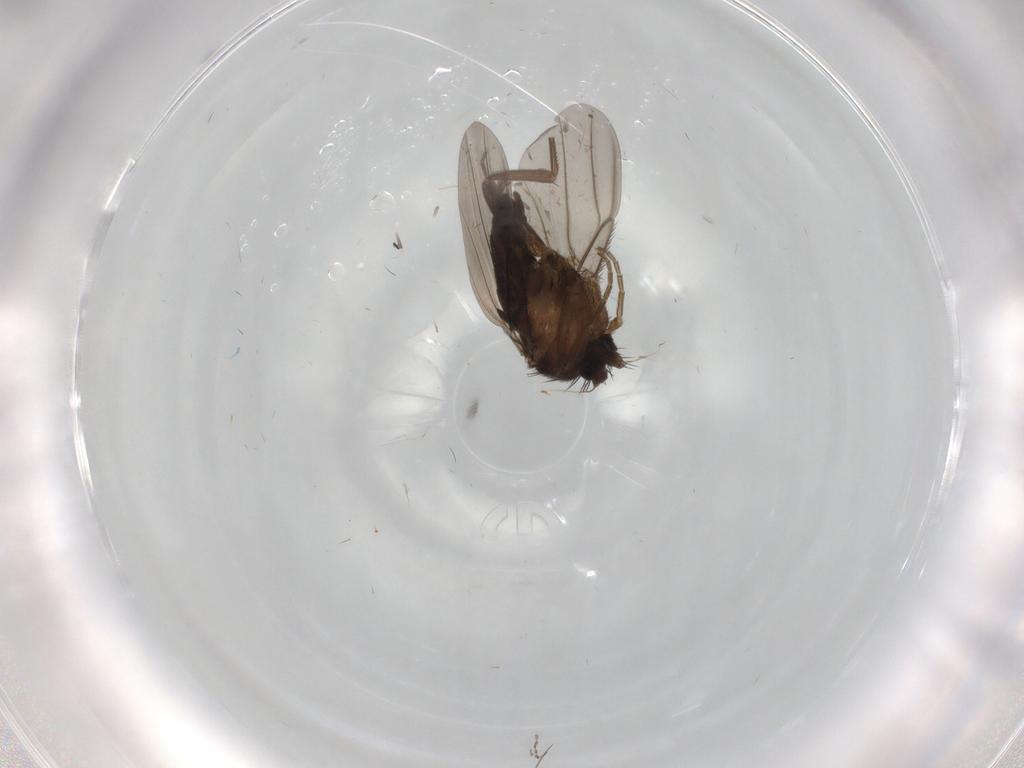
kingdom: Animalia
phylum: Arthropoda
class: Insecta
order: Diptera
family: Phoridae
